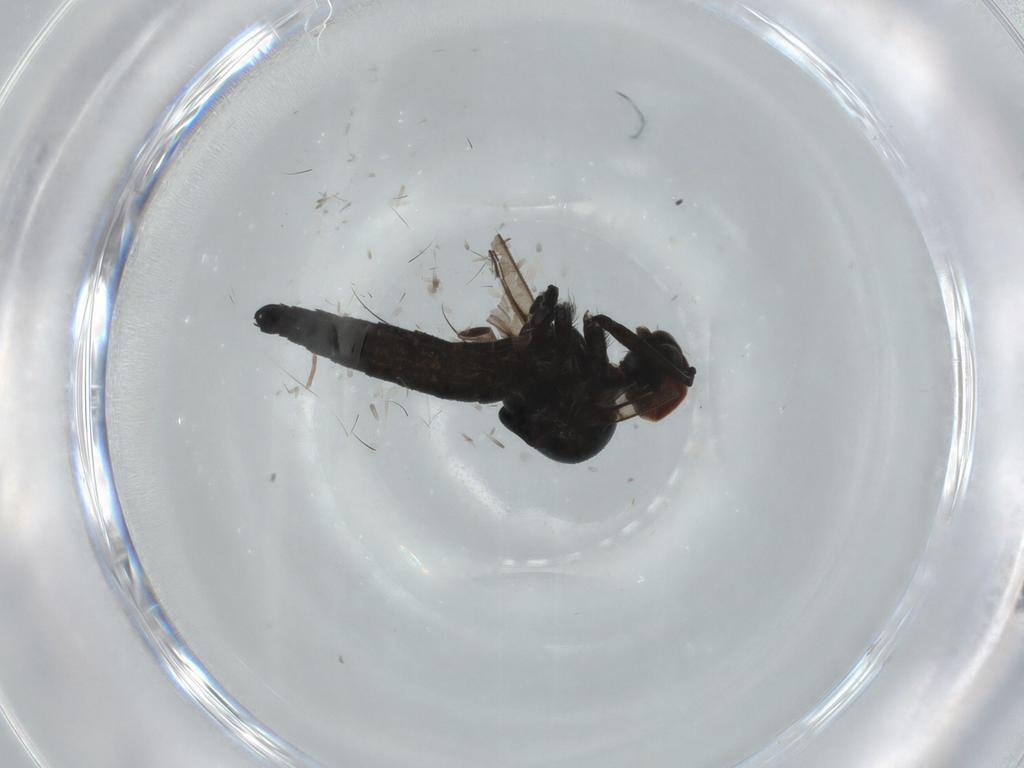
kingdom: Animalia
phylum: Arthropoda
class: Insecta
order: Diptera
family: Hybotidae
